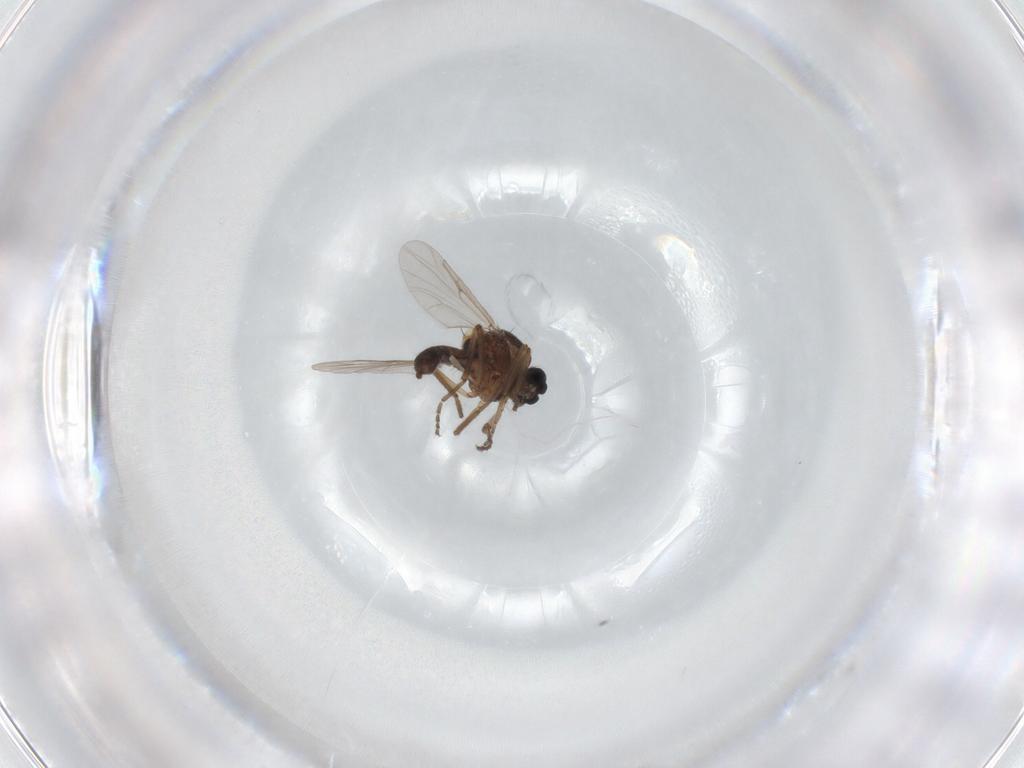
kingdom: Animalia
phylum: Arthropoda
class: Insecta
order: Diptera
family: Ceratopogonidae
